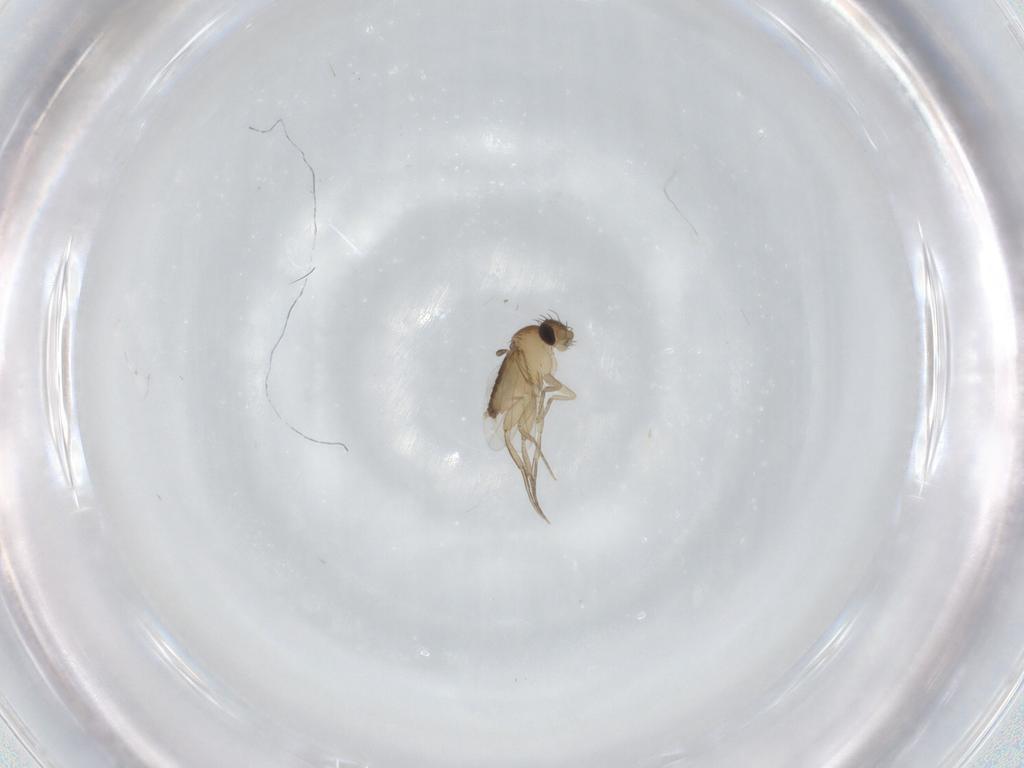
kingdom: Animalia
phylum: Arthropoda
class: Insecta
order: Diptera
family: Phoridae
